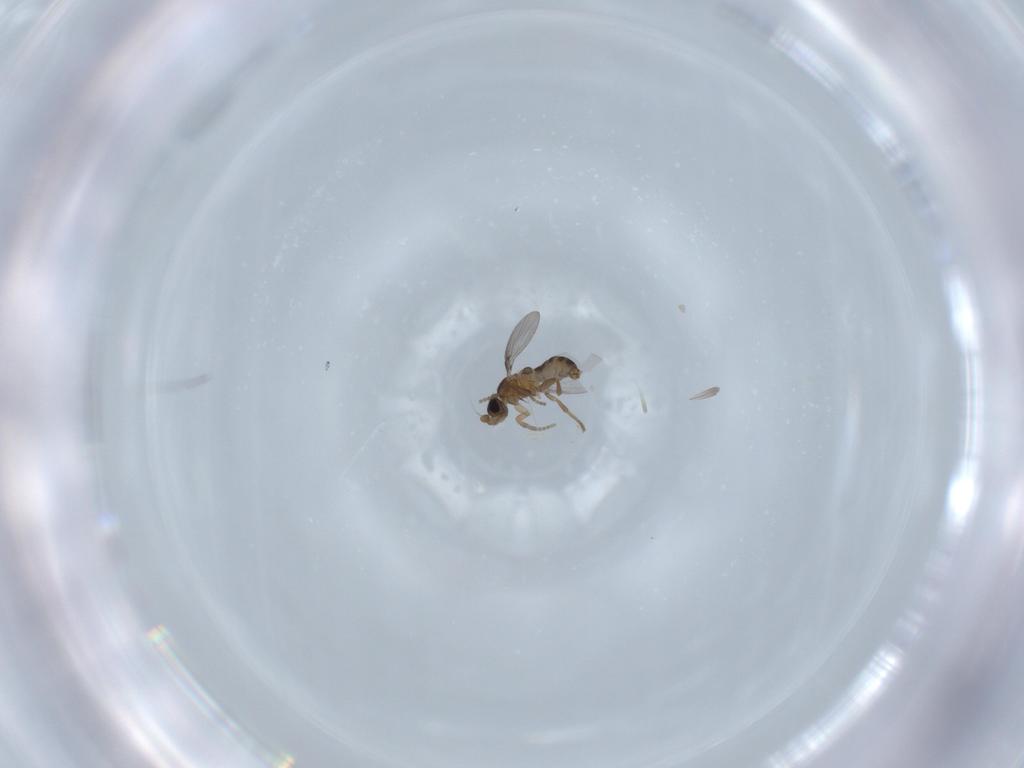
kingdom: Animalia
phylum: Arthropoda
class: Insecta
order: Diptera
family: Phoridae
